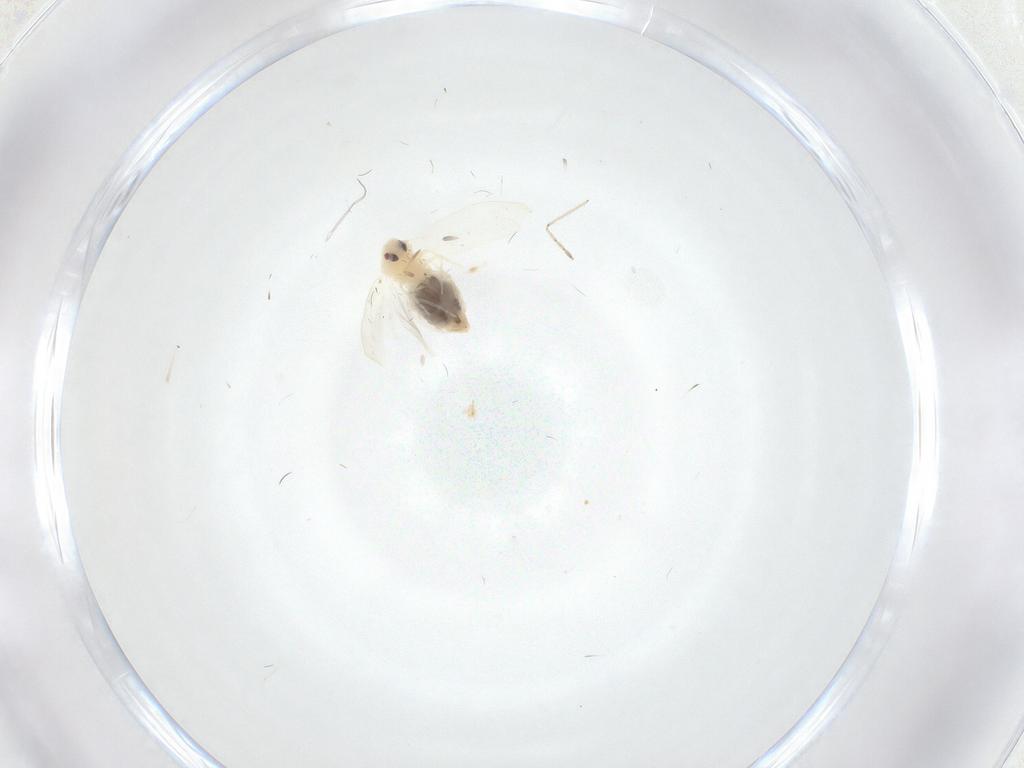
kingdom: Animalia
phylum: Arthropoda
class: Insecta
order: Hemiptera
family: Aleyrodidae
